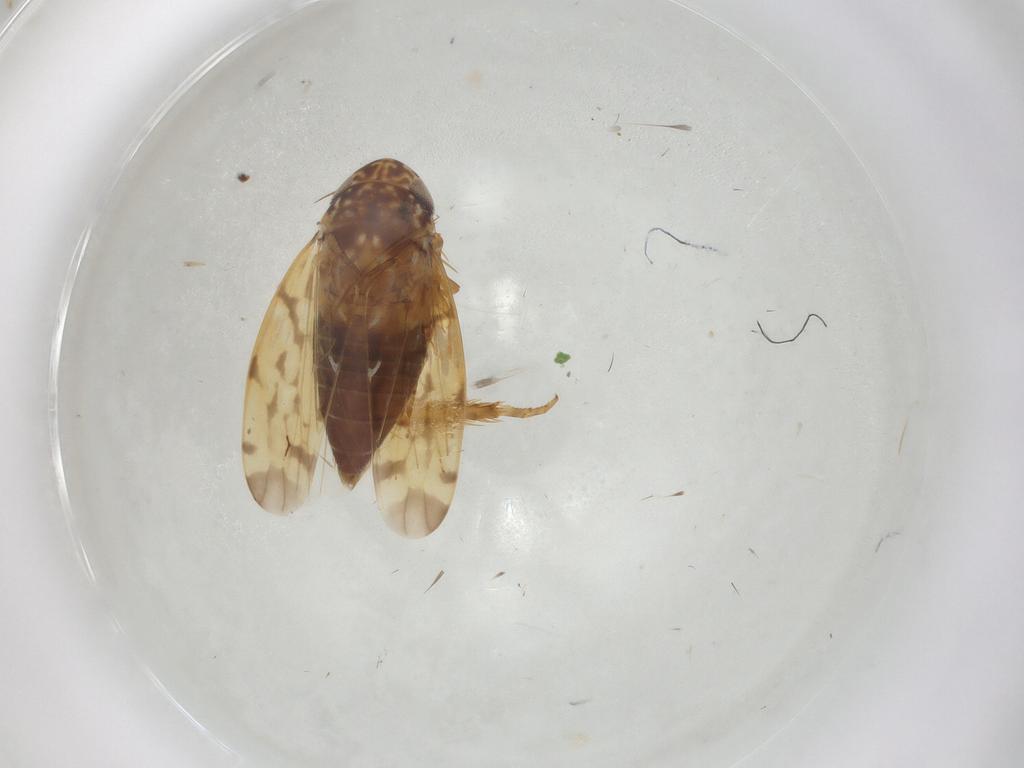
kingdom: Animalia
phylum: Arthropoda
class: Insecta
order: Hemiptera
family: Cicadellidae
